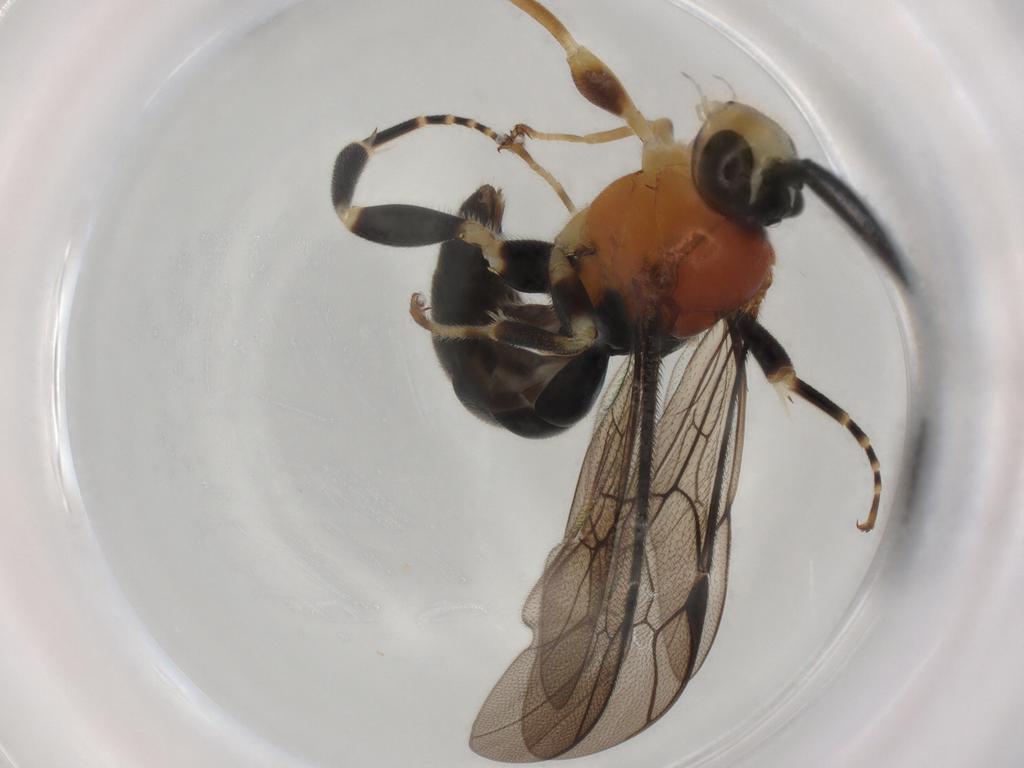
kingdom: Animalia
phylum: Arthropoda
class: Insecta
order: Hymenoptera
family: Ichneumonidae
